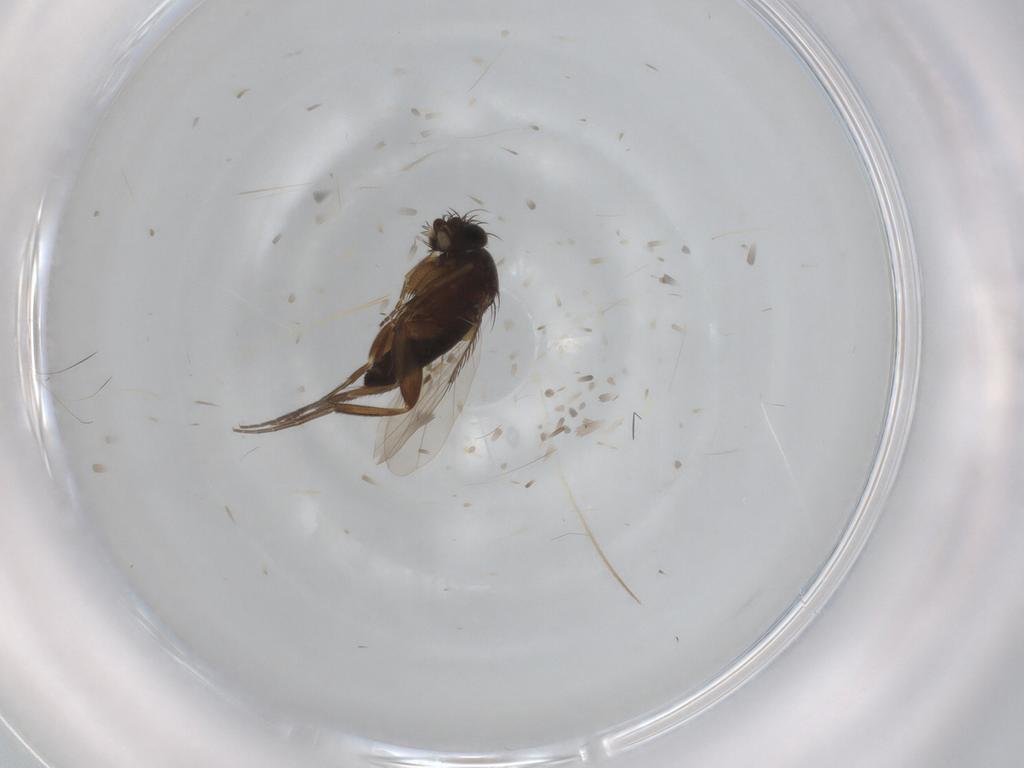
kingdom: Animalia
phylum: Arthropoda
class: Insecta
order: Diptera
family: Phoridae
